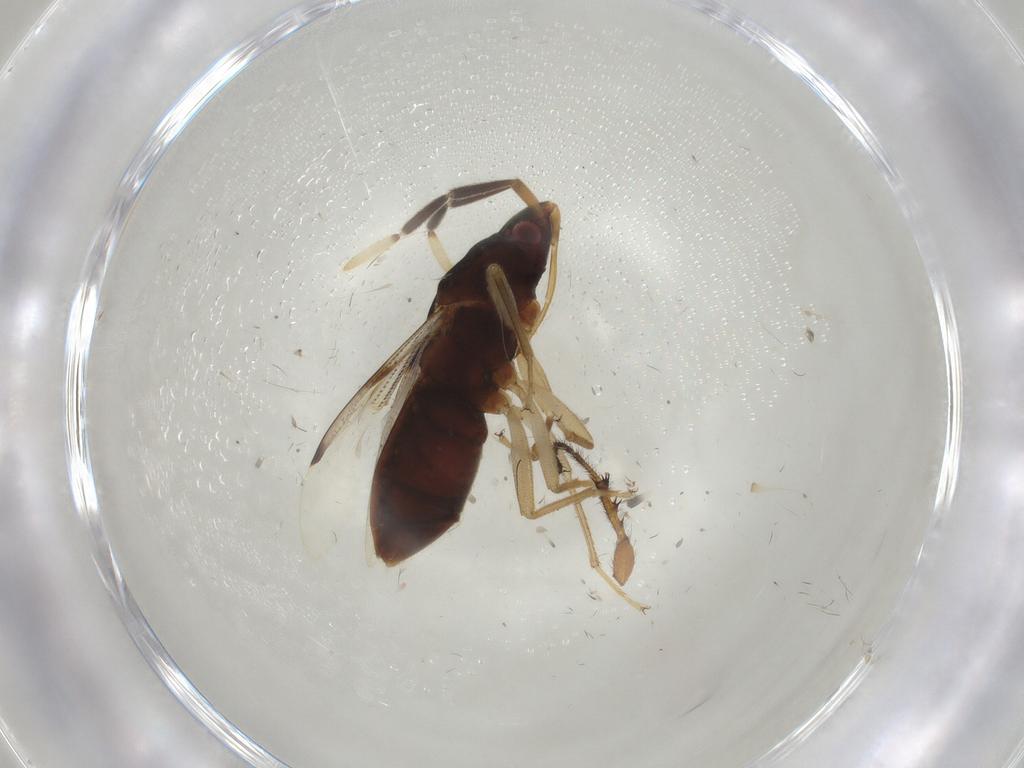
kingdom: Animalia
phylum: Arthropoda
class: Insecta
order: Hemiptera
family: Rhyparochromidae
